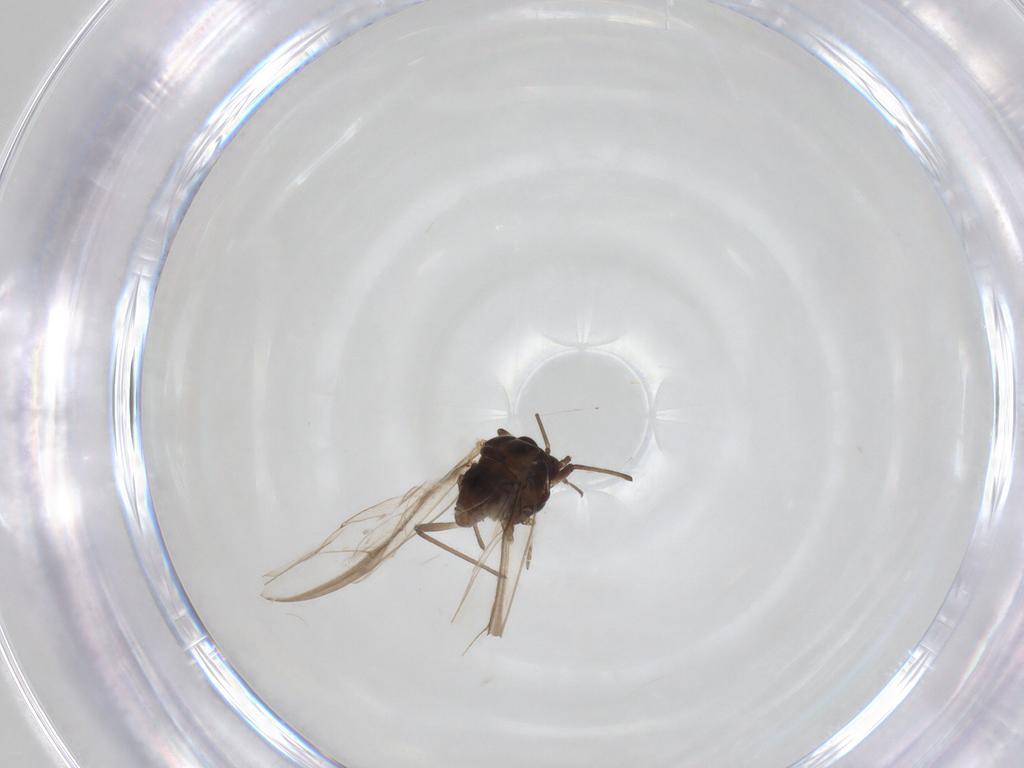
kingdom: Animalia
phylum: Arthropoda
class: Insecta
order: Hemiptera
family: Aphididae
